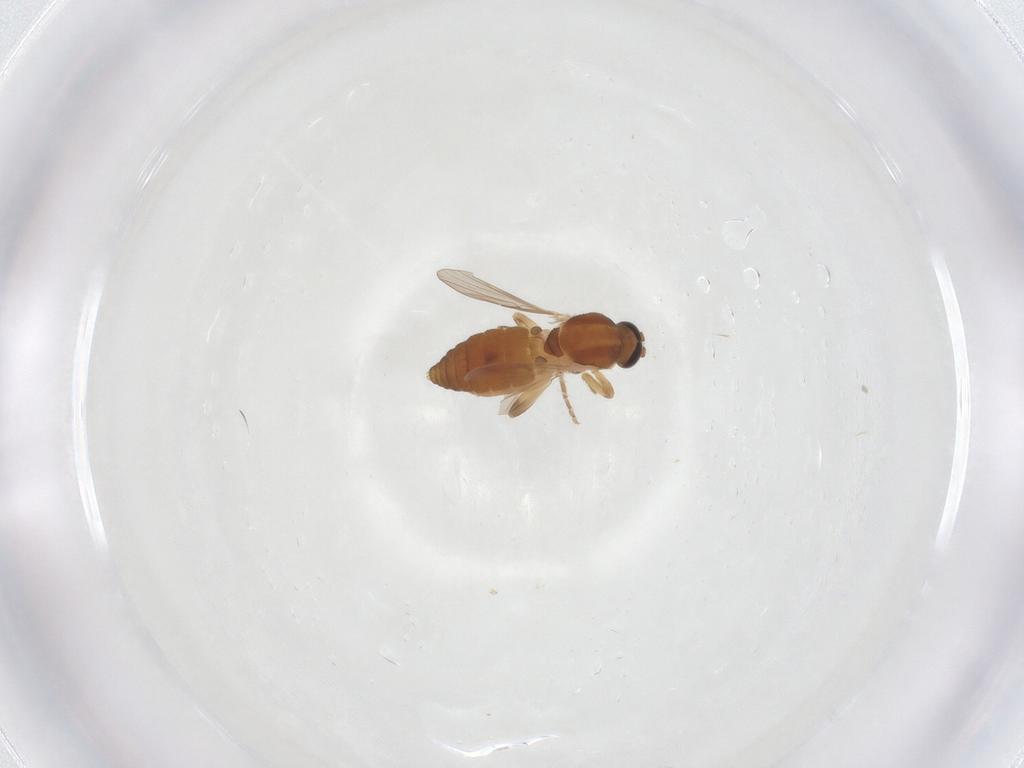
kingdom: Animalia
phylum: Arthropoda
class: Insecta
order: Diptera
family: Ceratopogonidae
